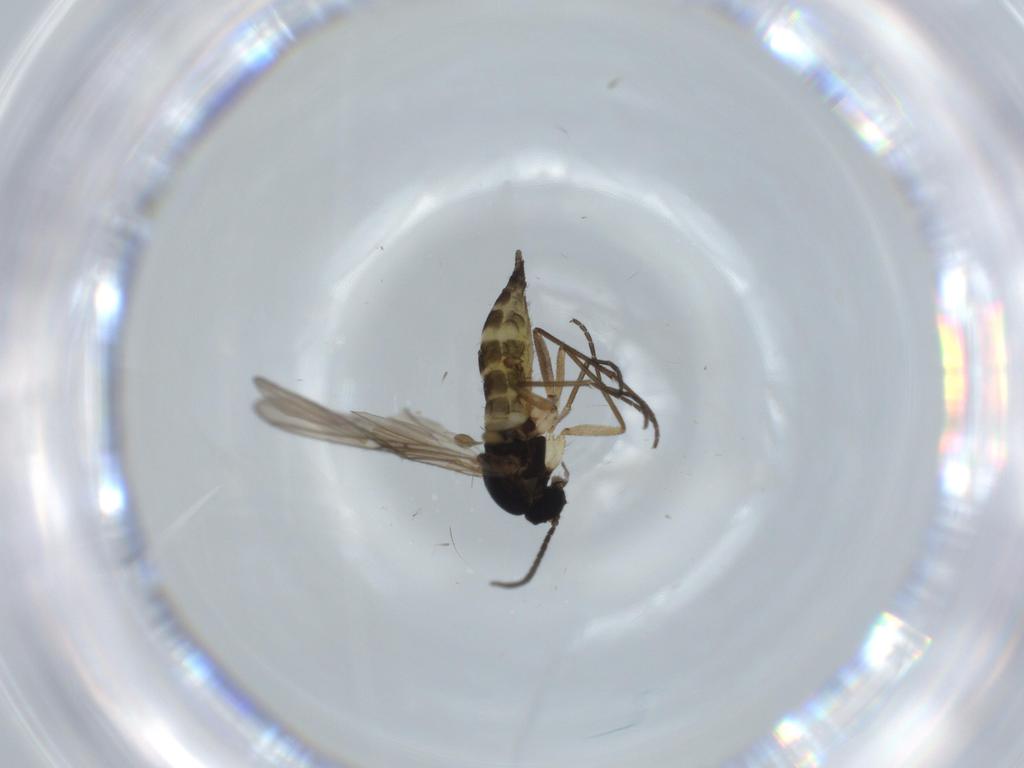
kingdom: Animalia
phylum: Arthropoda
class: Insecta
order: Diptera
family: Sciaridae
